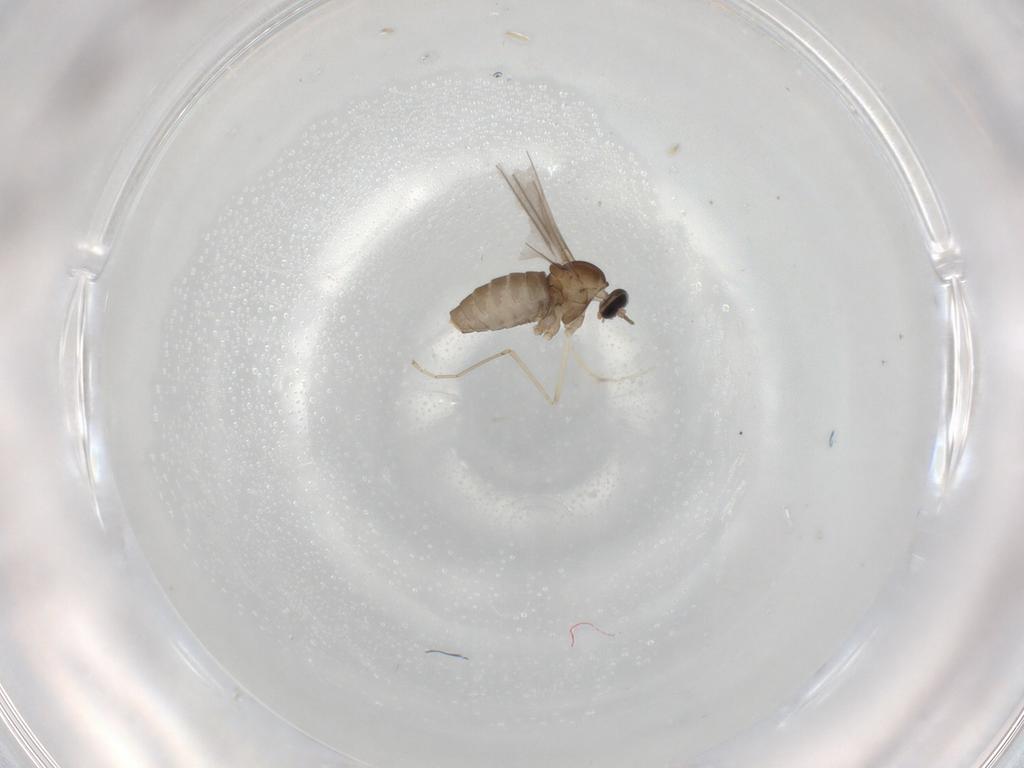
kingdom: Animalia
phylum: Arthropoda
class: Insecta
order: Diptera
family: Psychodidae
